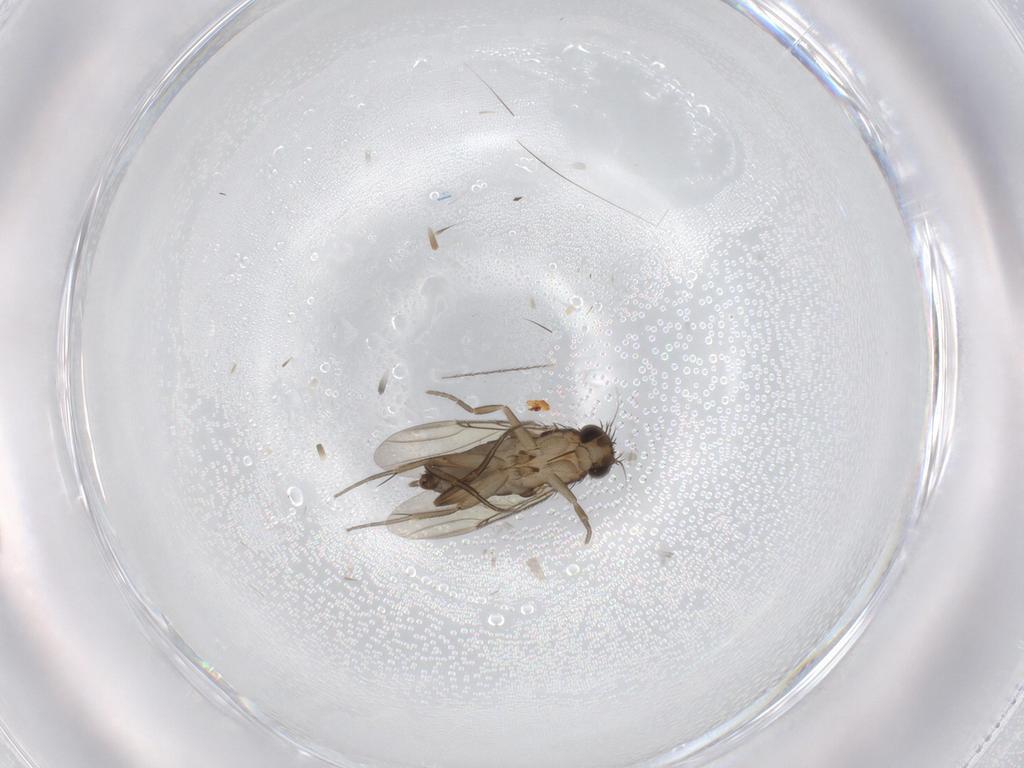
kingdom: Animalia
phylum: Arthropoda
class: Insecta
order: Diptera
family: Phoridae
